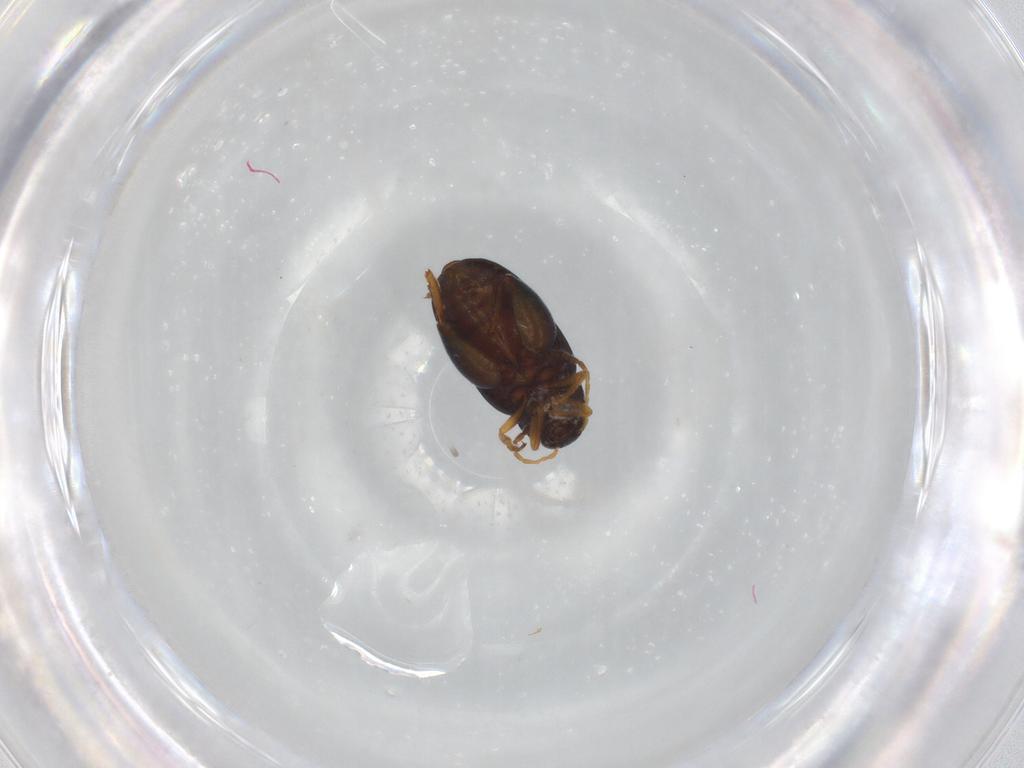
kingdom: Animalia
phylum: Arthropoda
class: Insecta
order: Coleoptera
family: Chrysomelidae
